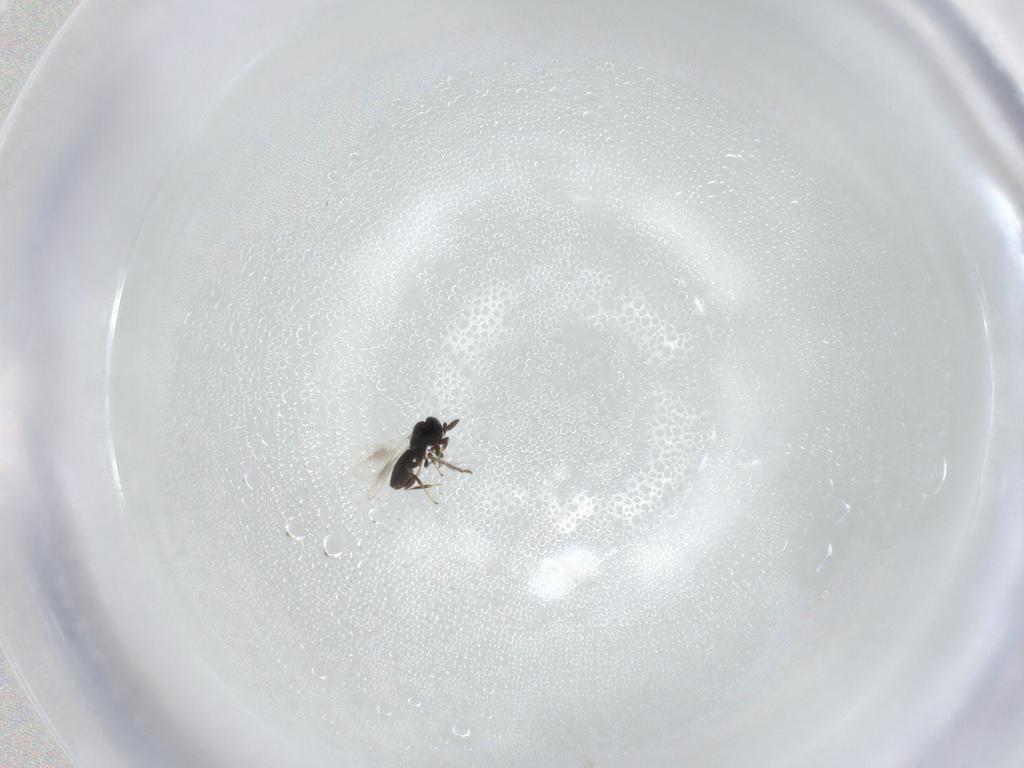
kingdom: Animalia
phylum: Arthropoda
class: Insecta
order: Hymenoptera
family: Platygastridae
